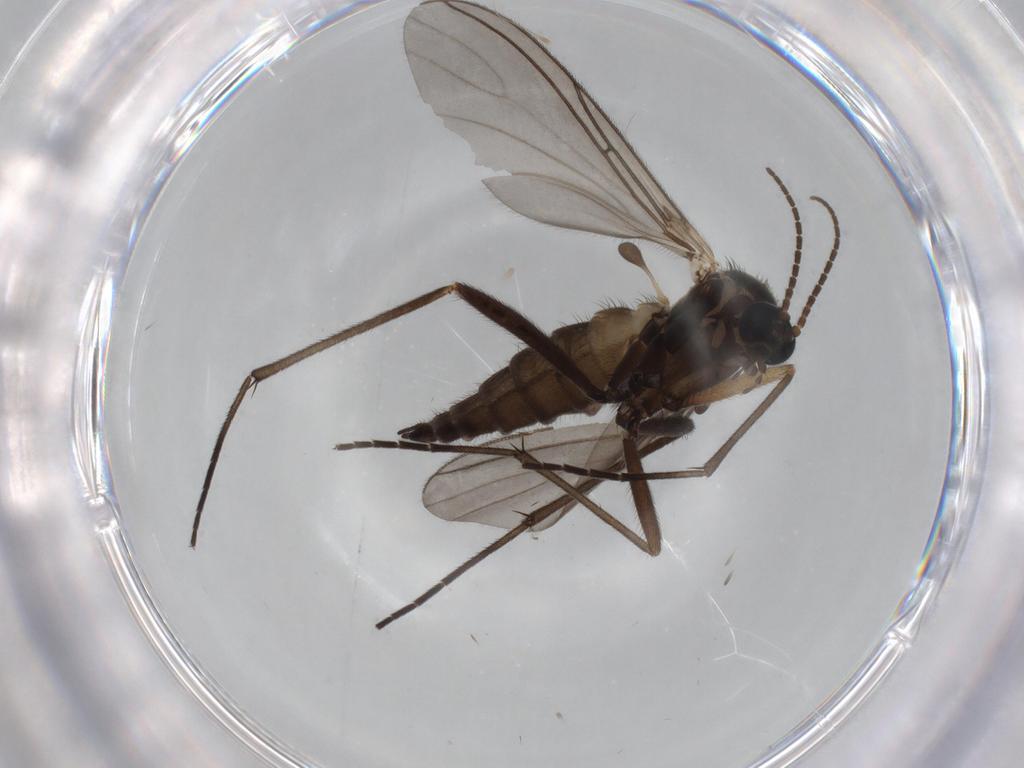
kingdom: Animalia
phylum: Arthropoda
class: Insecta
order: Diptera
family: Sciaridae
